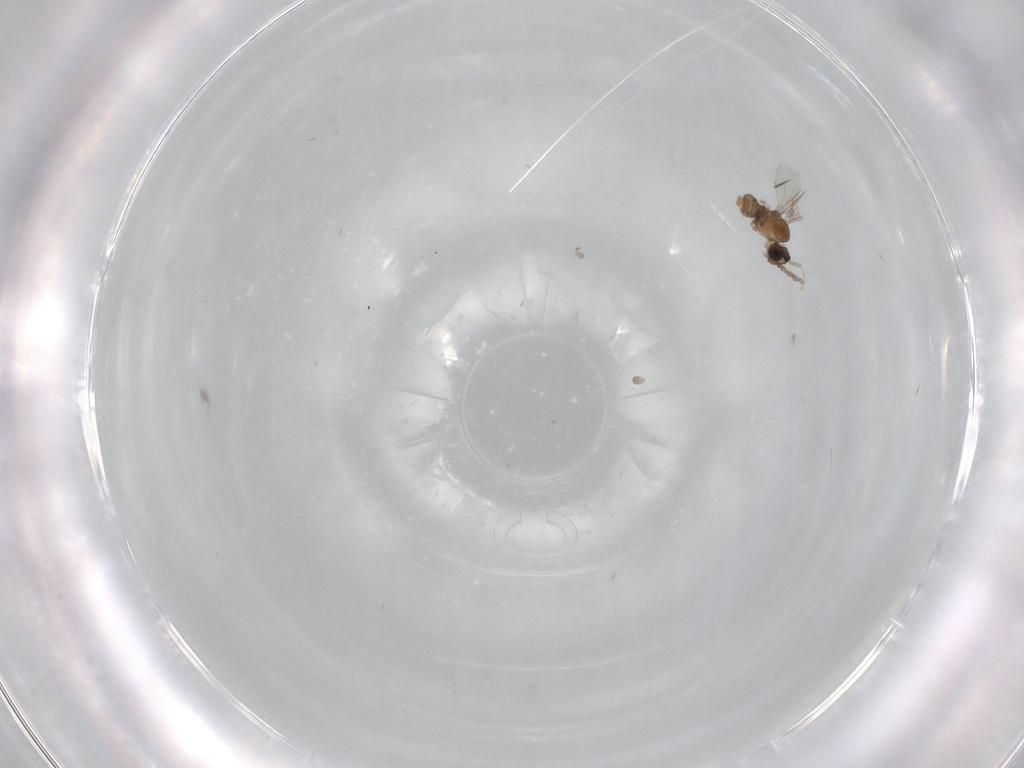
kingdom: Animalia
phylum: Arthropoda
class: Insecta
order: Diptera
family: Cecidomyiidae
